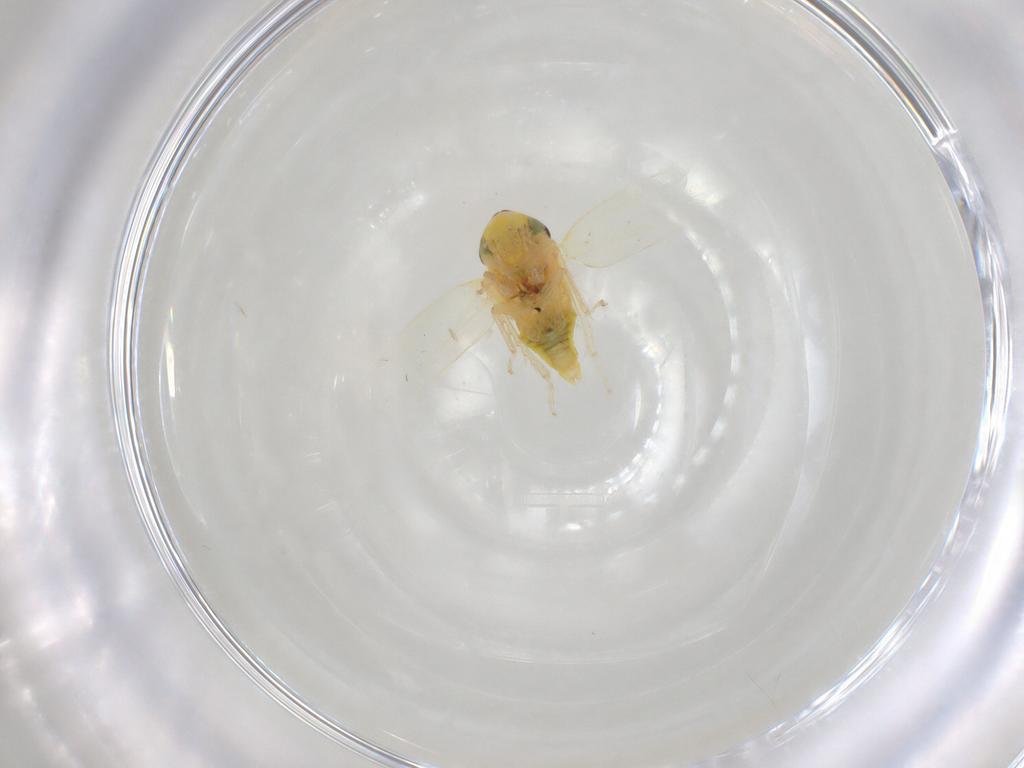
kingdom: Animalia
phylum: Arthropoda
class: Insecta
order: Hemiptera
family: Cicadellidae
